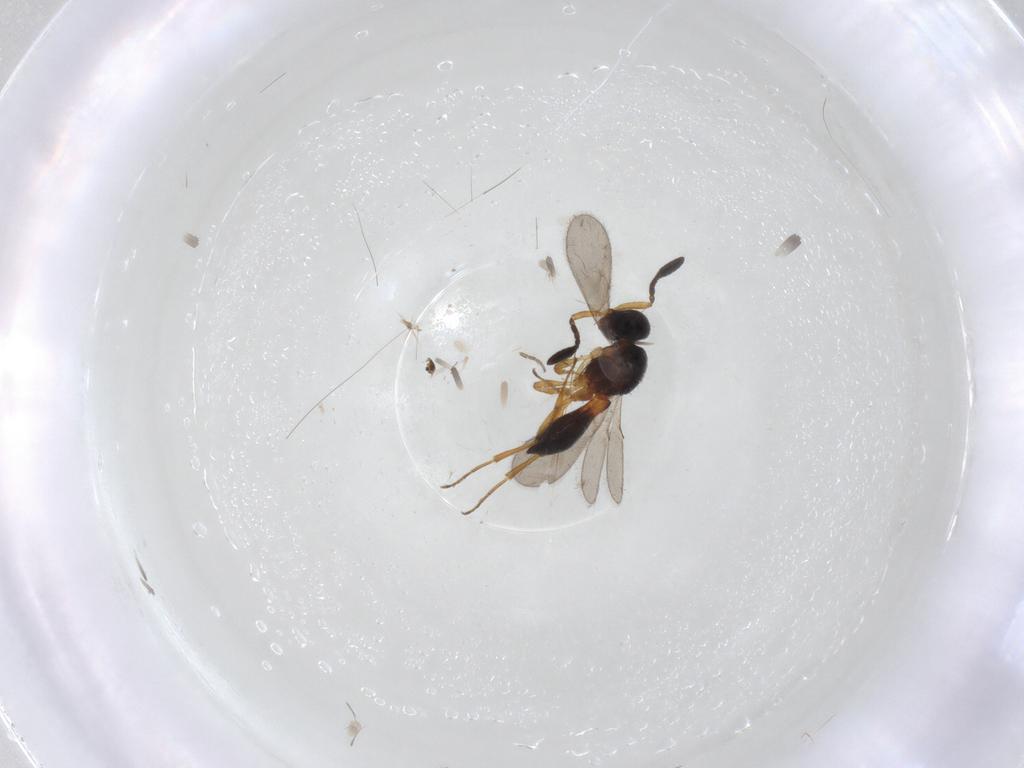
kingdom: Animalia
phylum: Arthropoda
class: Insecta
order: Hymenoptera
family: Scelionidae
